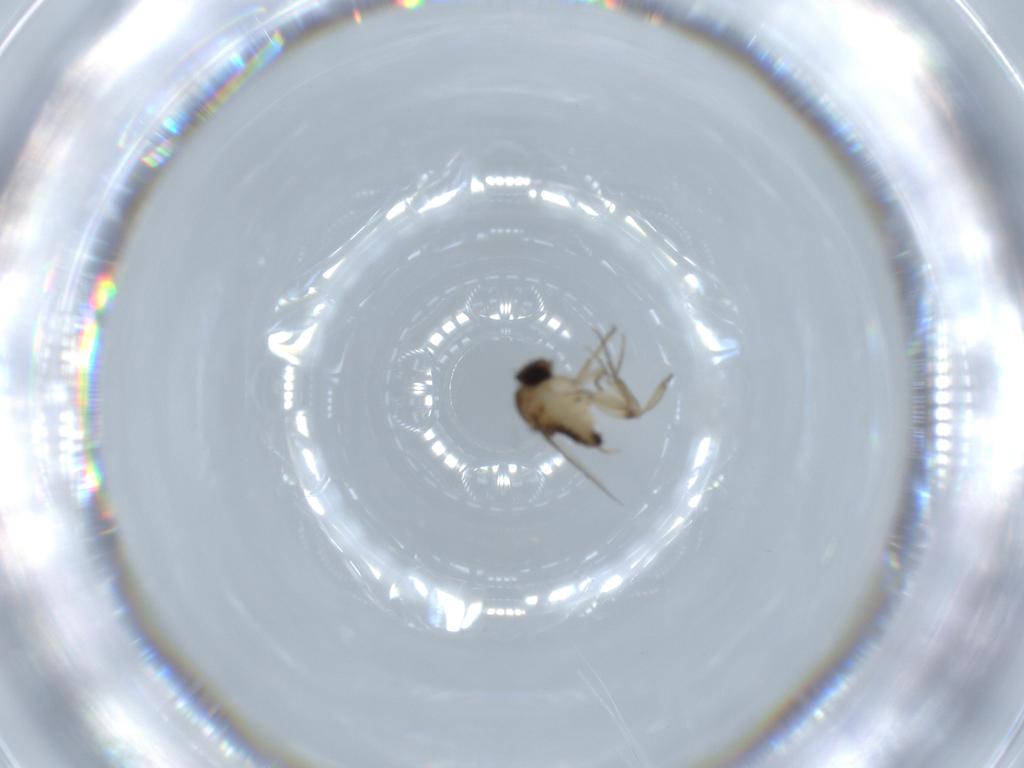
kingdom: Animalia
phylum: Arthropoda
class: Insecta
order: Diptera
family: Phoridae
